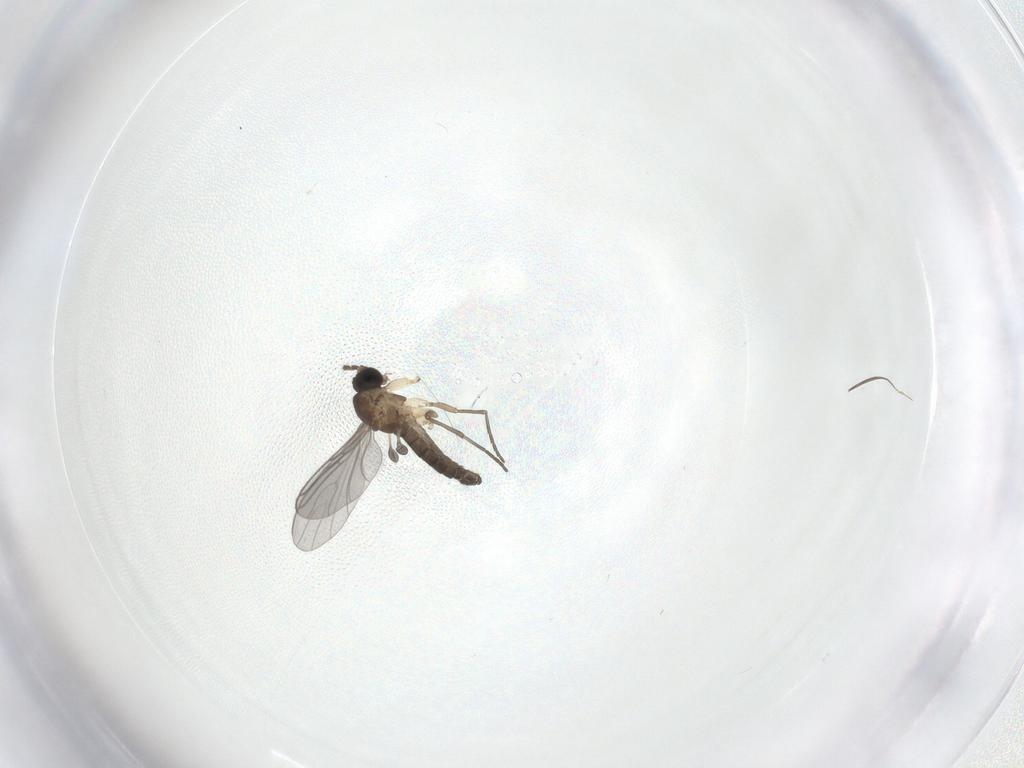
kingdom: Animalia
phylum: Arthropoda
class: Insecta
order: Diptera
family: Sciaridae
